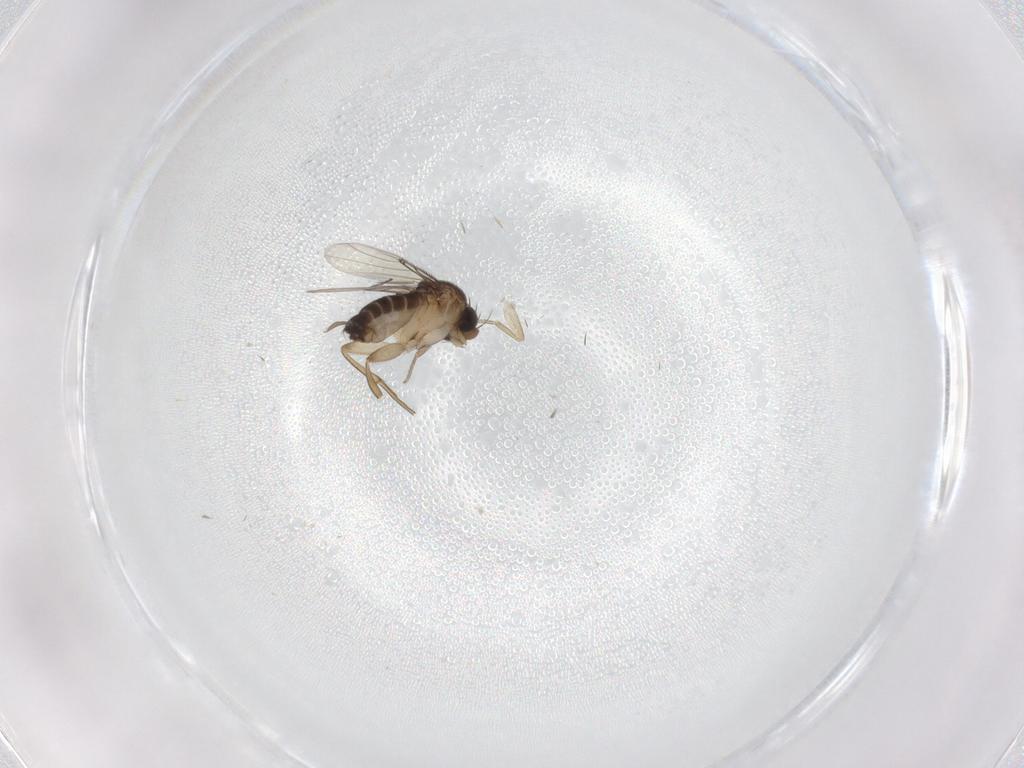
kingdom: Animalia
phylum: Arthropoda
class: Insecta
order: Diptera
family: Chironomidae
